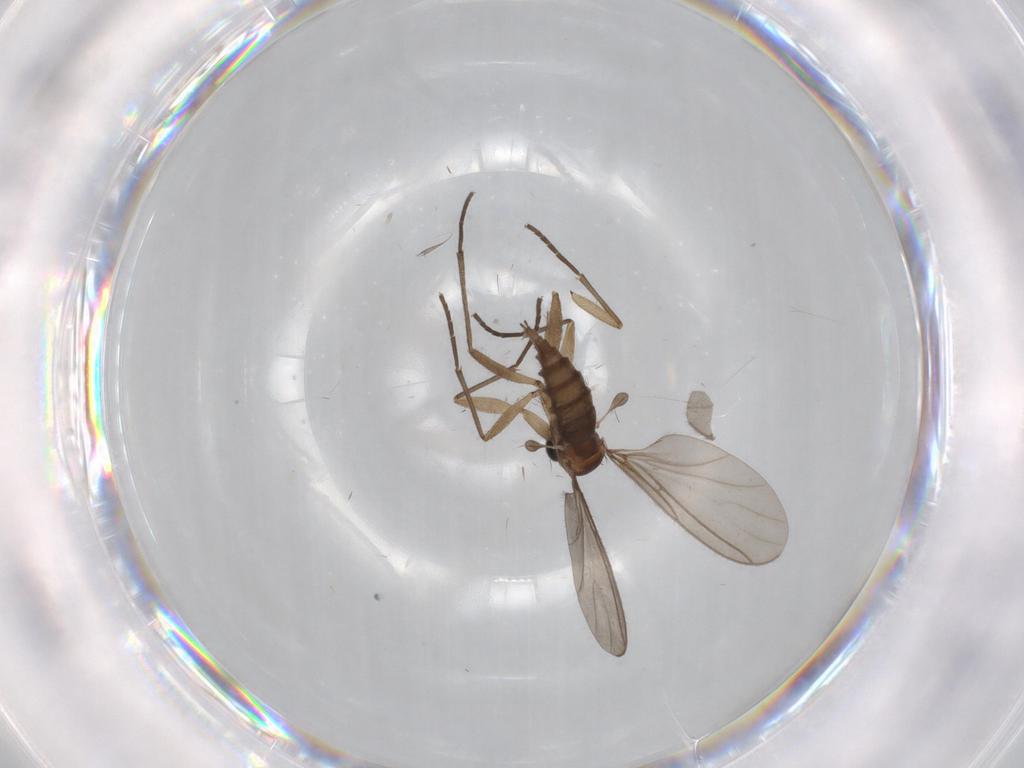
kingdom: Animalia
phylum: Arthropoda
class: Insecta
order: Diptera
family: Sciaridae
